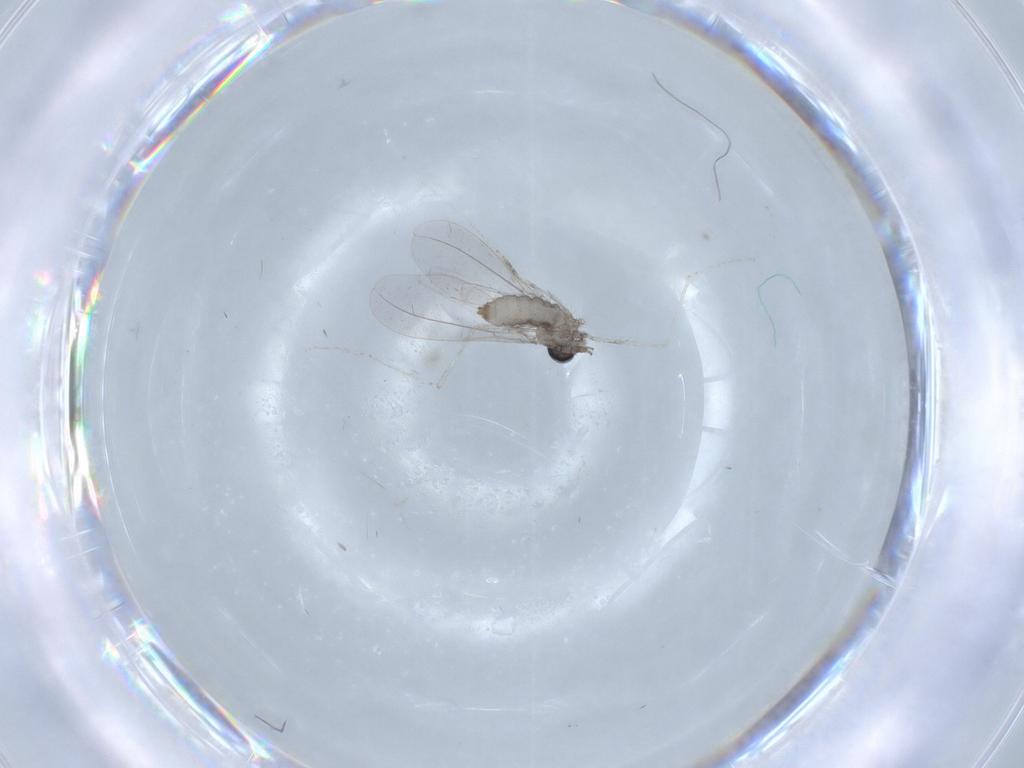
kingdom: Animalia
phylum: Arthropoda
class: Insecta
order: Diptera
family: Cecidomyiidae
